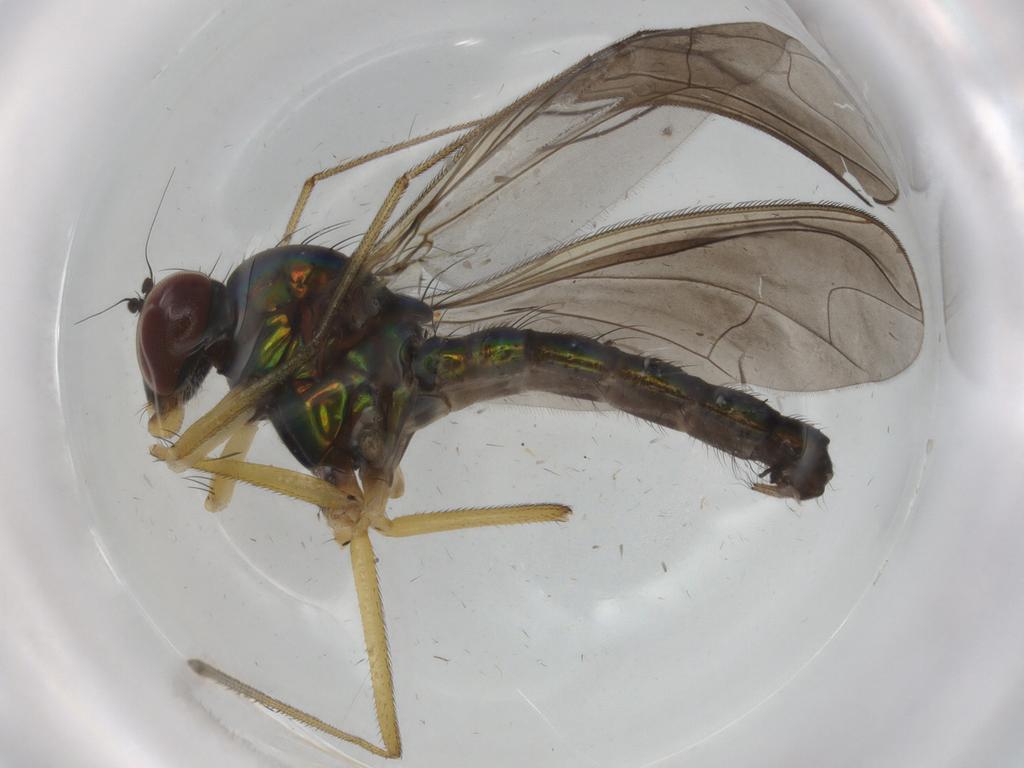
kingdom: Animalia
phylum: Arthropoda
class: Insecta
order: Diptera
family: Dolichopodidae
